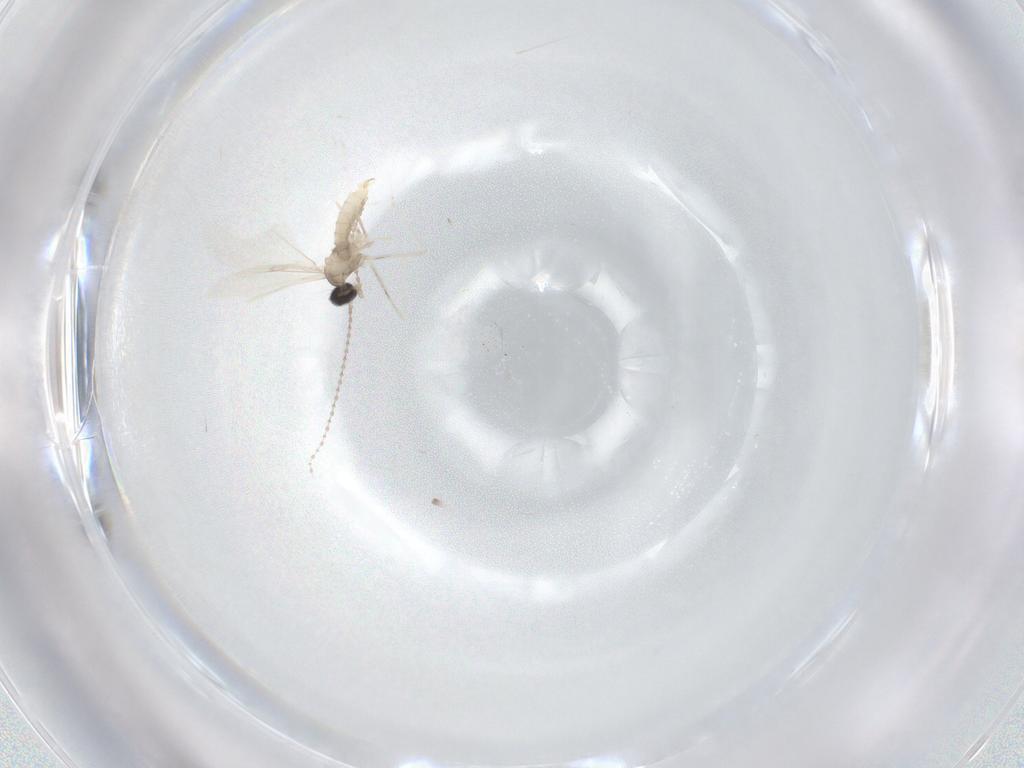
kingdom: Animalia
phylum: Arthropoda
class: Insecta
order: Diptera
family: Cecidomyiidae
